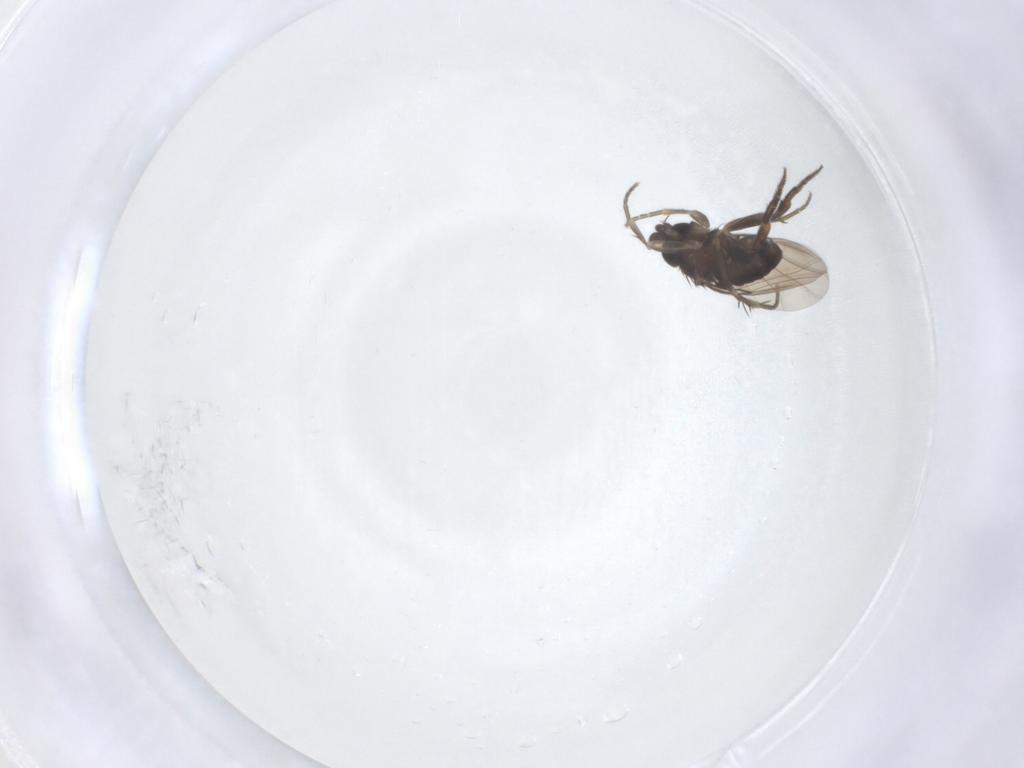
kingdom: Animalia
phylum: Arthropoda
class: Insecta
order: Diptera
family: Phoridae
